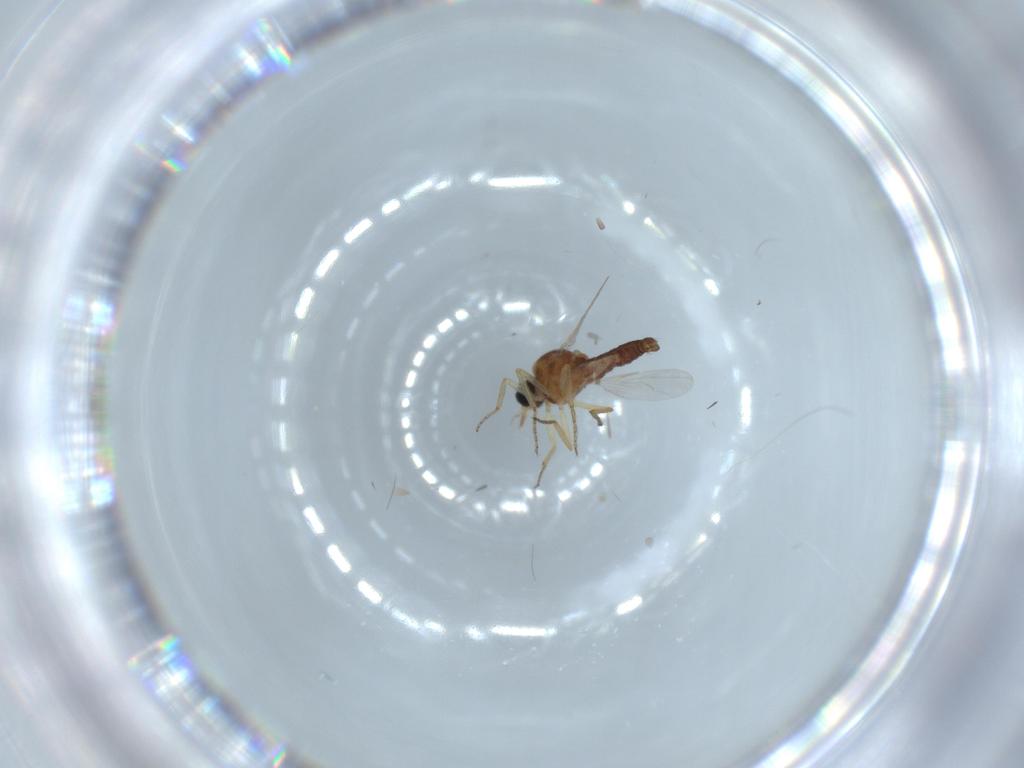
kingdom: Animalia
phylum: Arthropoda
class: Insecta
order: Diptera
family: Ceratopogonidae
